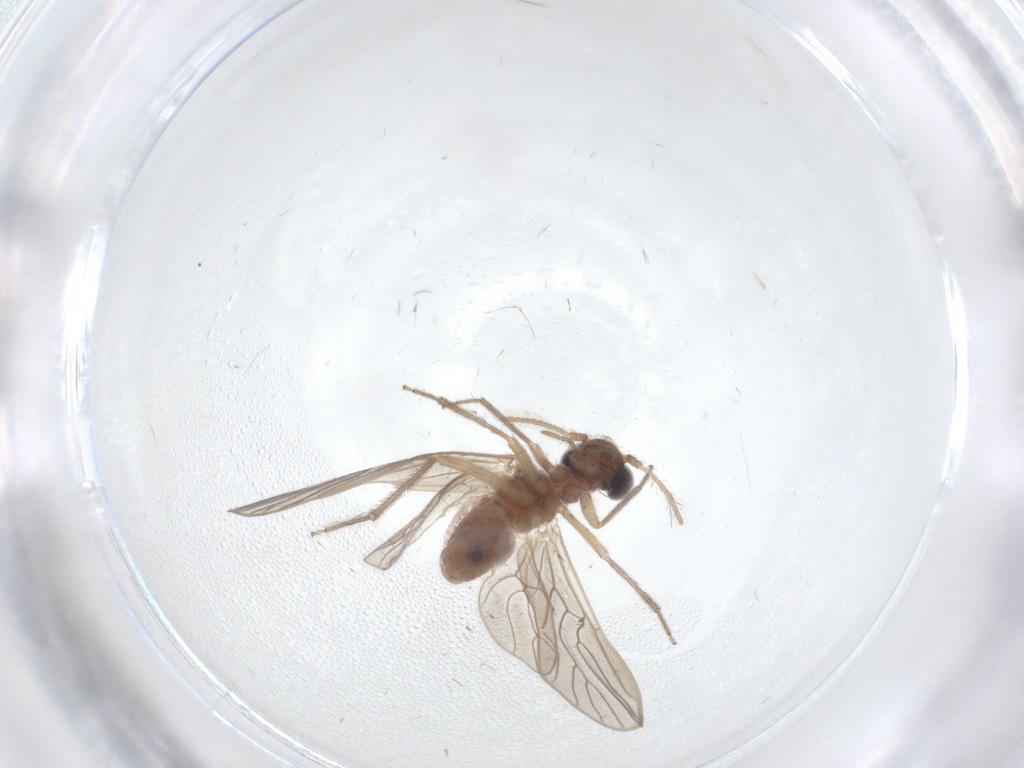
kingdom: Animalia
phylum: Arthropoda
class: Insecta
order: Psocodea
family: Epipsocidae
